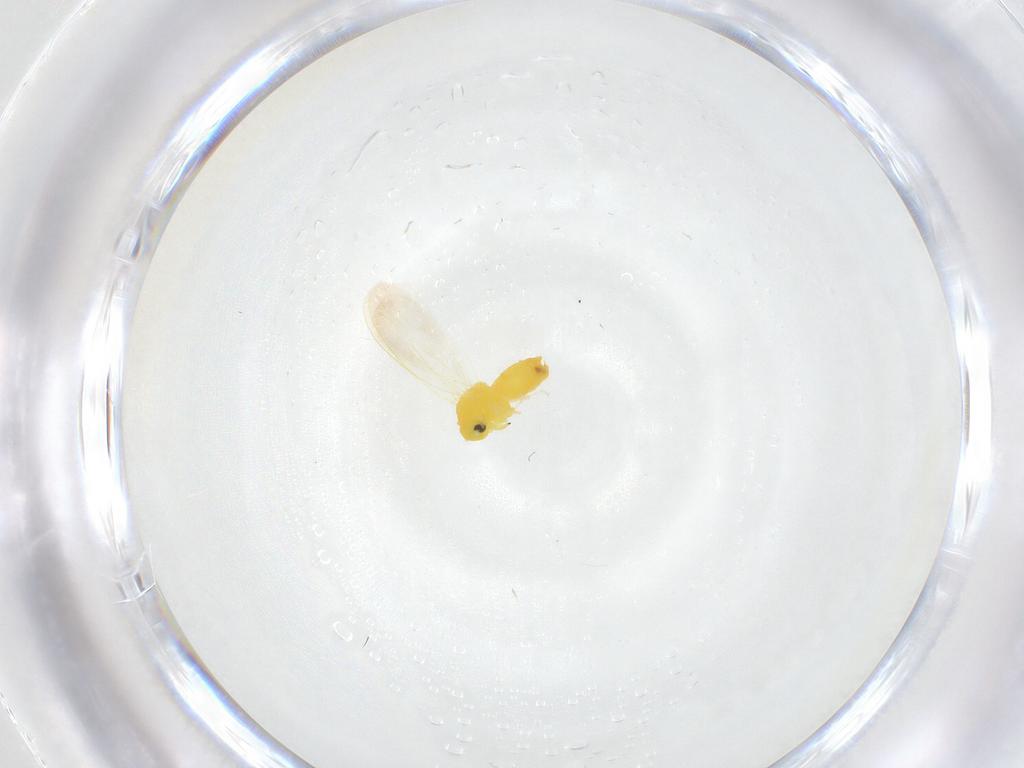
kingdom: Animalia
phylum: Arthropoda
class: Insecta
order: Hemiptera
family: Aleyrodidae
